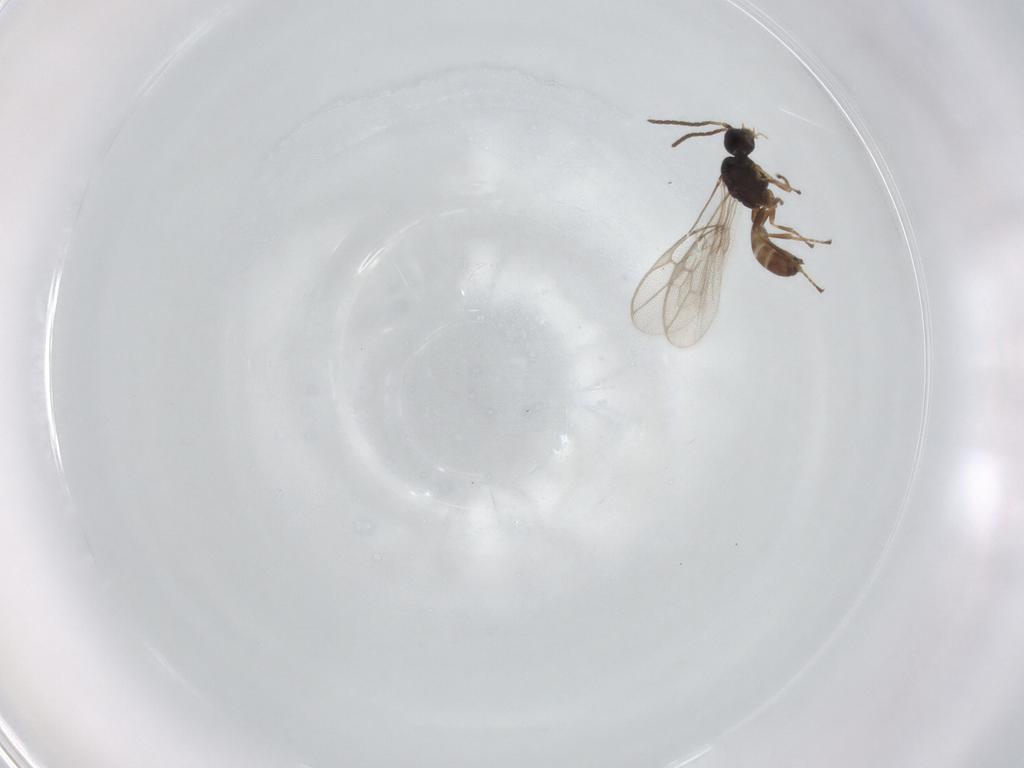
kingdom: Animalia
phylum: Arthropoda
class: Insecta
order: Hymenoptera
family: Braconidae
